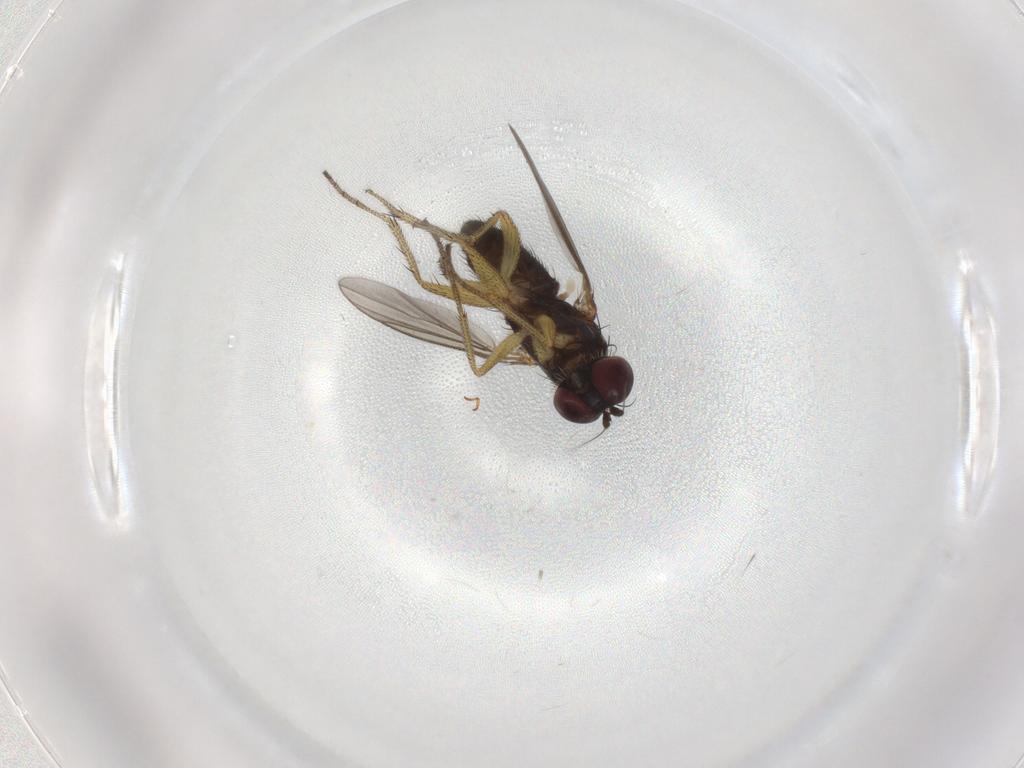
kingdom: Animalia
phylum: Arthropoda
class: Insecta
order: Diptera
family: Dolichopodidae
